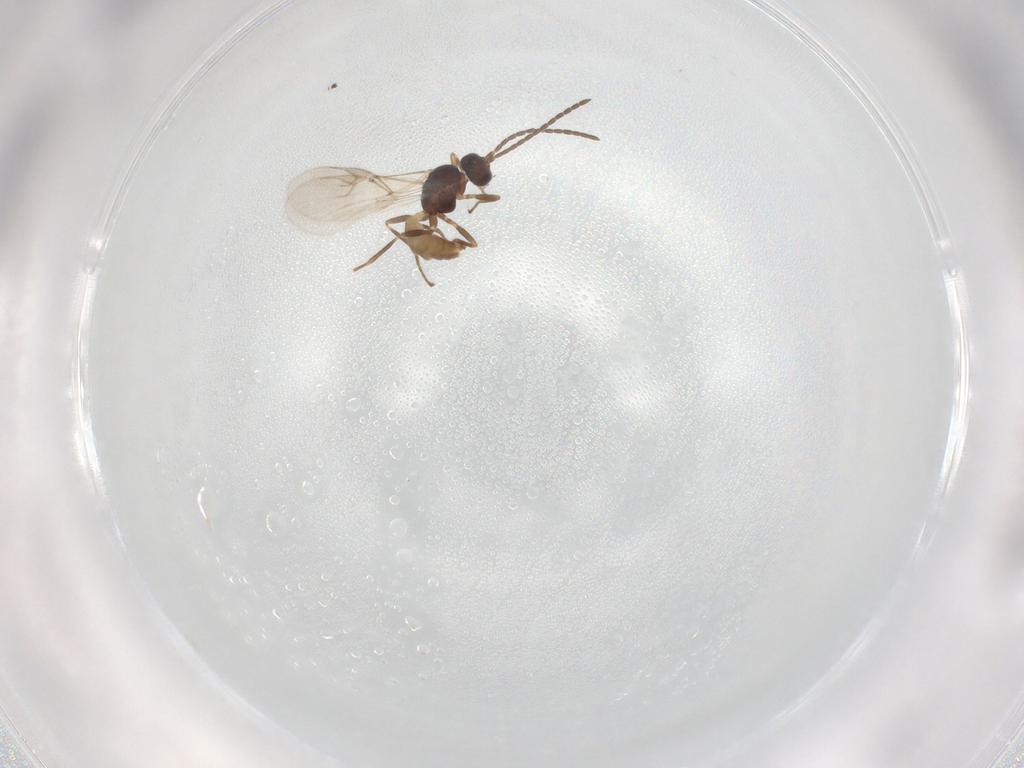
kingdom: Animalia
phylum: Arthropoda
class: Insecta
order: Hymenoptera
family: Braconidae
